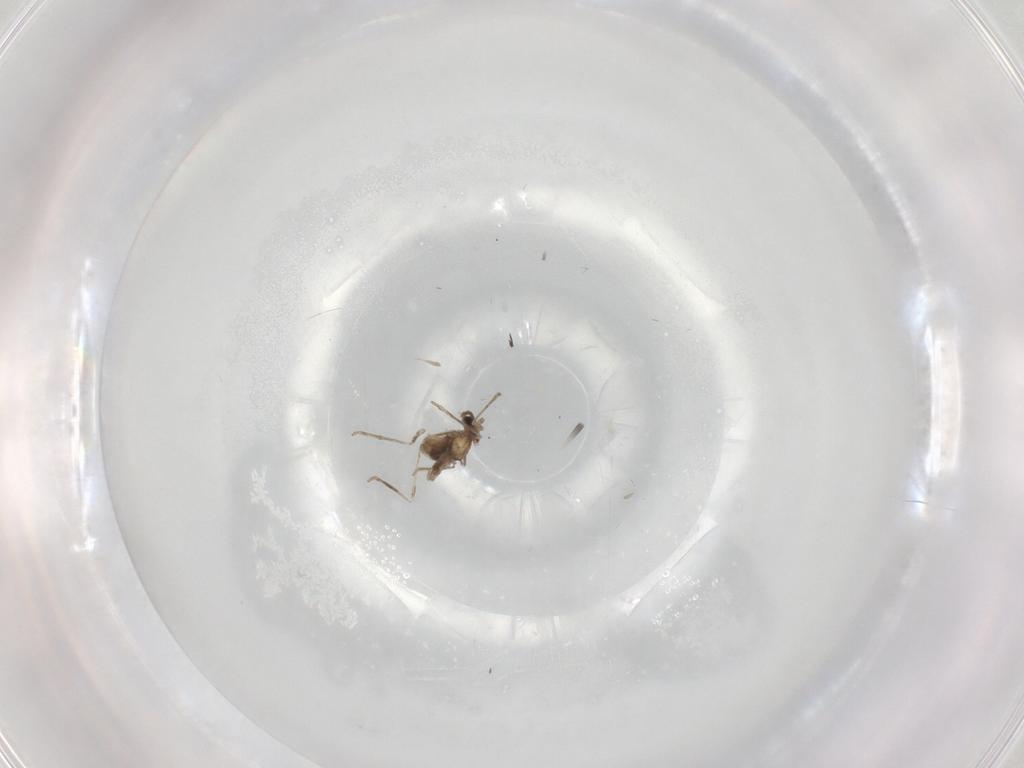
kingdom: Animalia
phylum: Arthropoda
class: Insecta
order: Diptera
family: Cecidomyiidae
